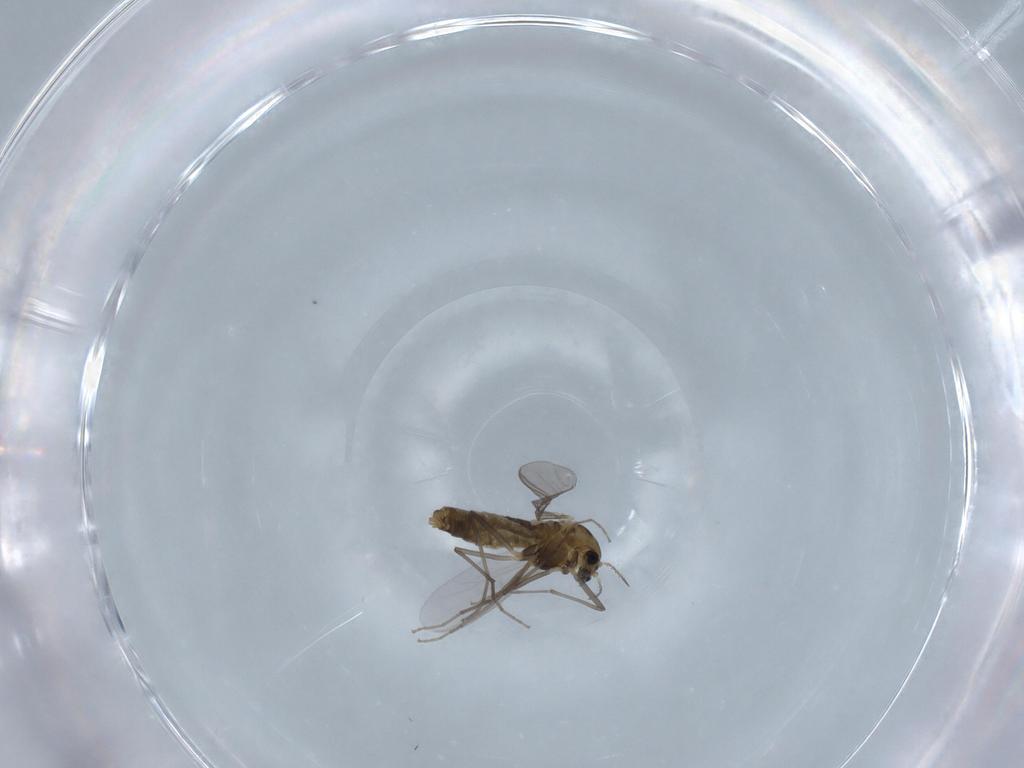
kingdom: Animalia
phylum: Arthropoda
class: Insecta
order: Diptera
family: Chironomidae
